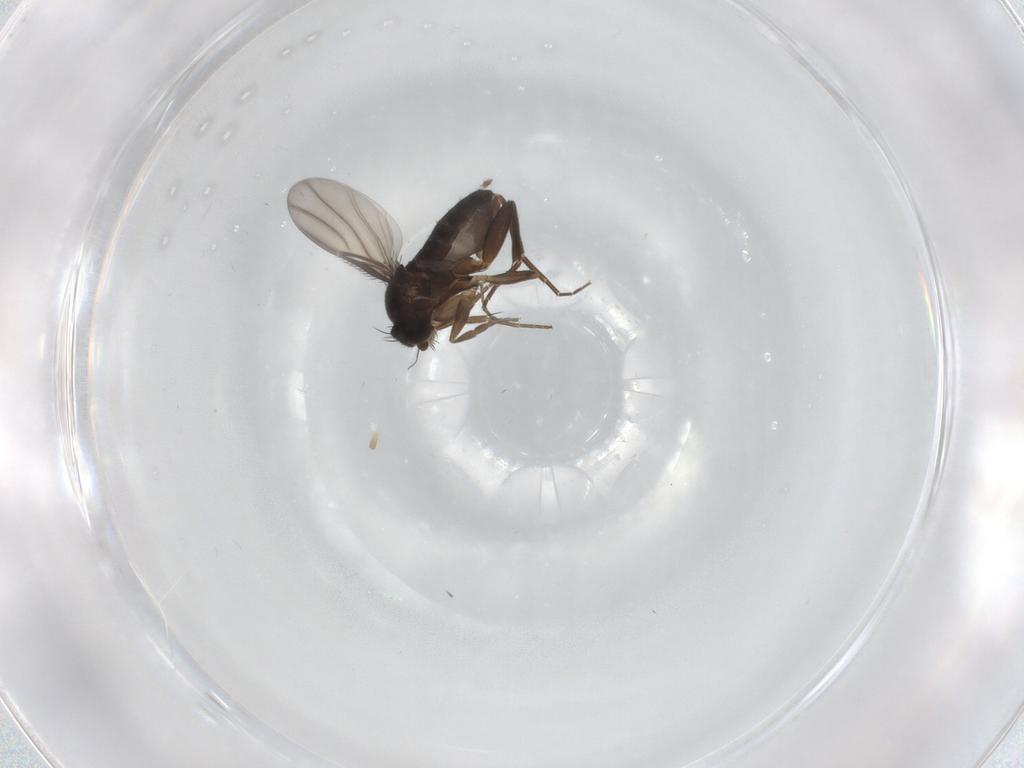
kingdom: Animalia
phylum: Arthropoda
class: Insecta
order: Diptera
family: Phoridae
